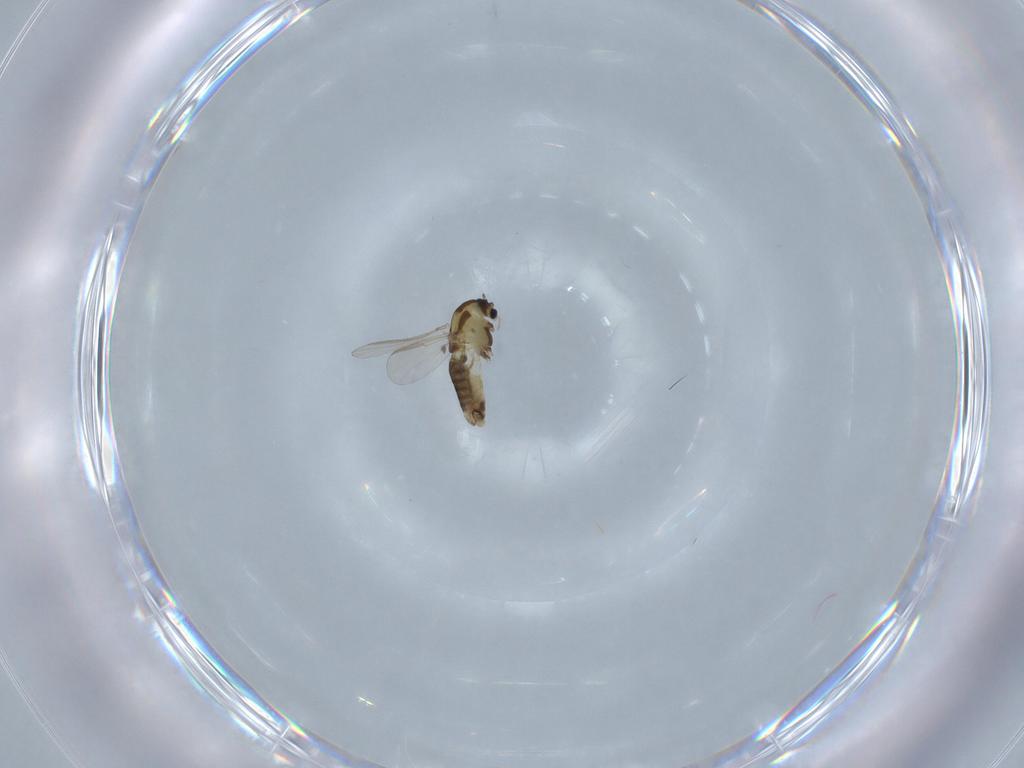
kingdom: Animalia
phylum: Arthropoda
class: Insecta
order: Diptera
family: Chironomidae
